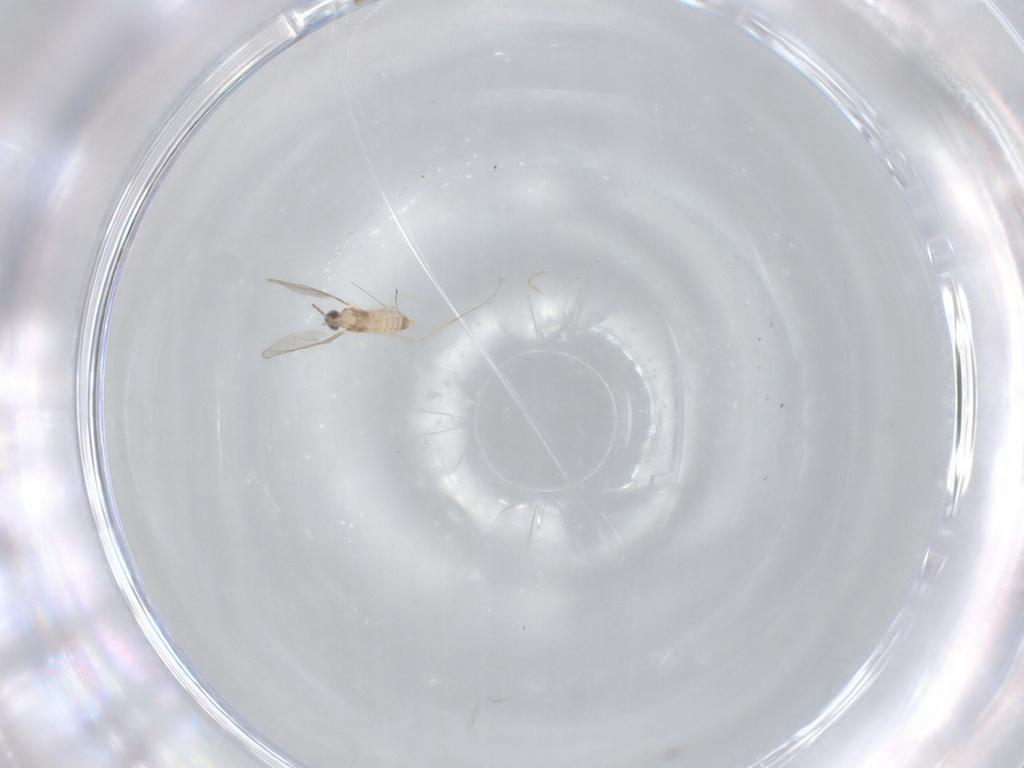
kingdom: Animalia
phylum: Arthropoda
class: Insecta
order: Diptera
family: Cecidomyiidae
